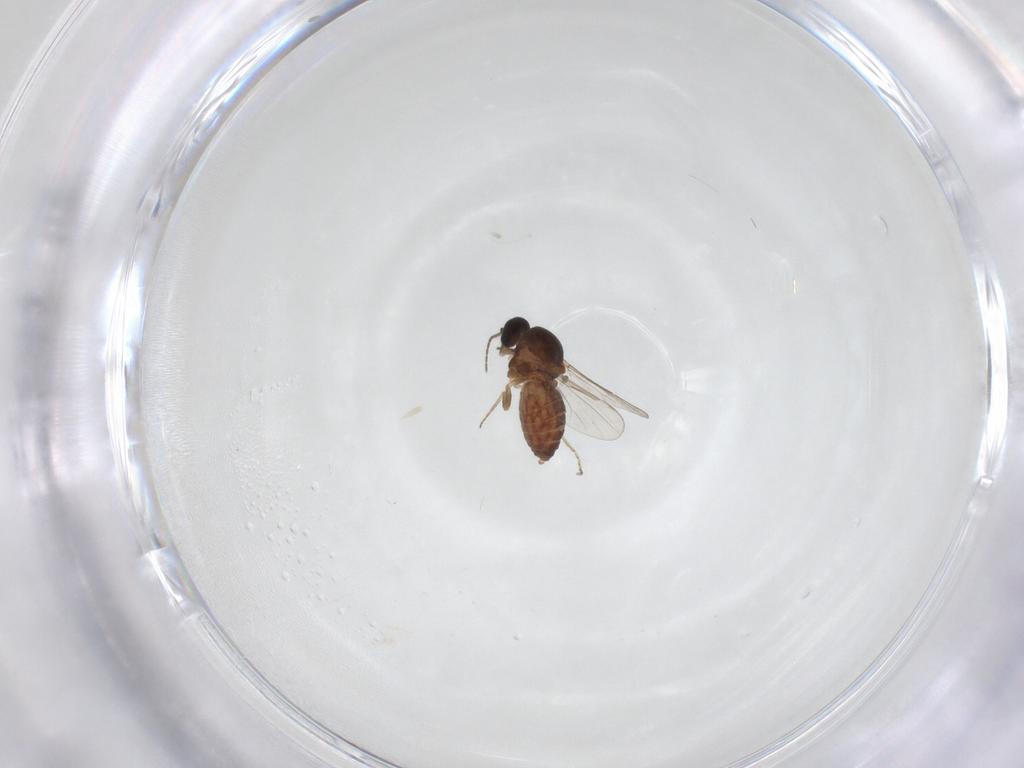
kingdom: Animalia
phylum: Arthropoda
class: Insecta
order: Diptera
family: Ceratopogonidae
